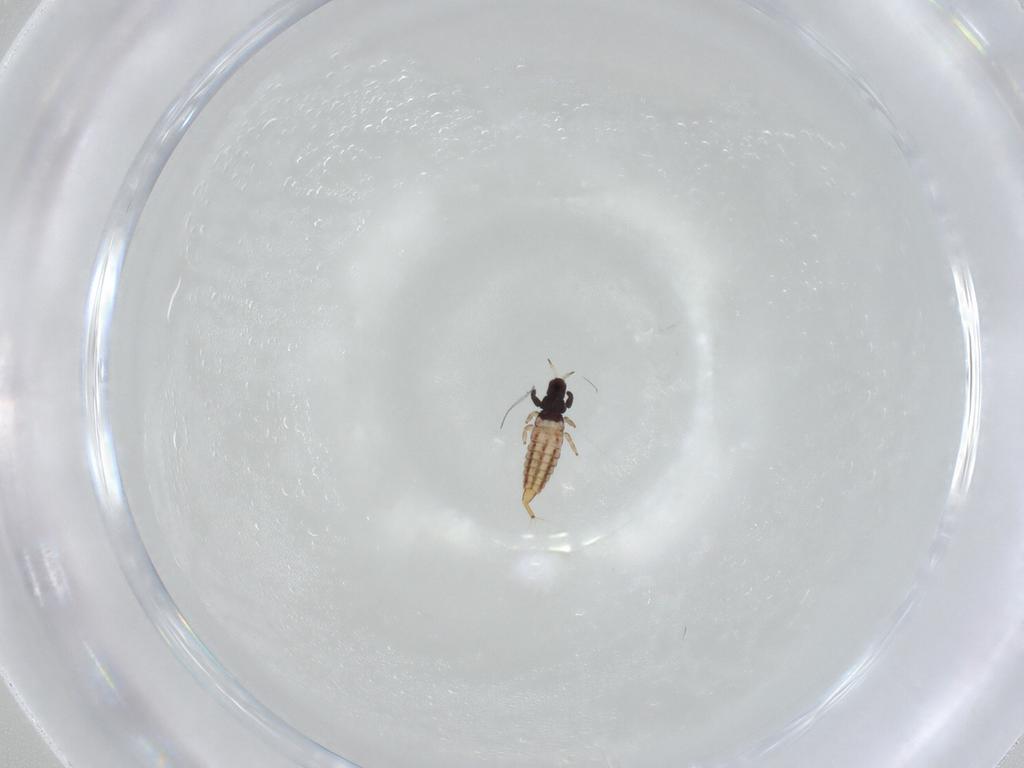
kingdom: Animalia
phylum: Arthropoda
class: Insecta
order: Thysanoptera
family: Phlaeothripidae
